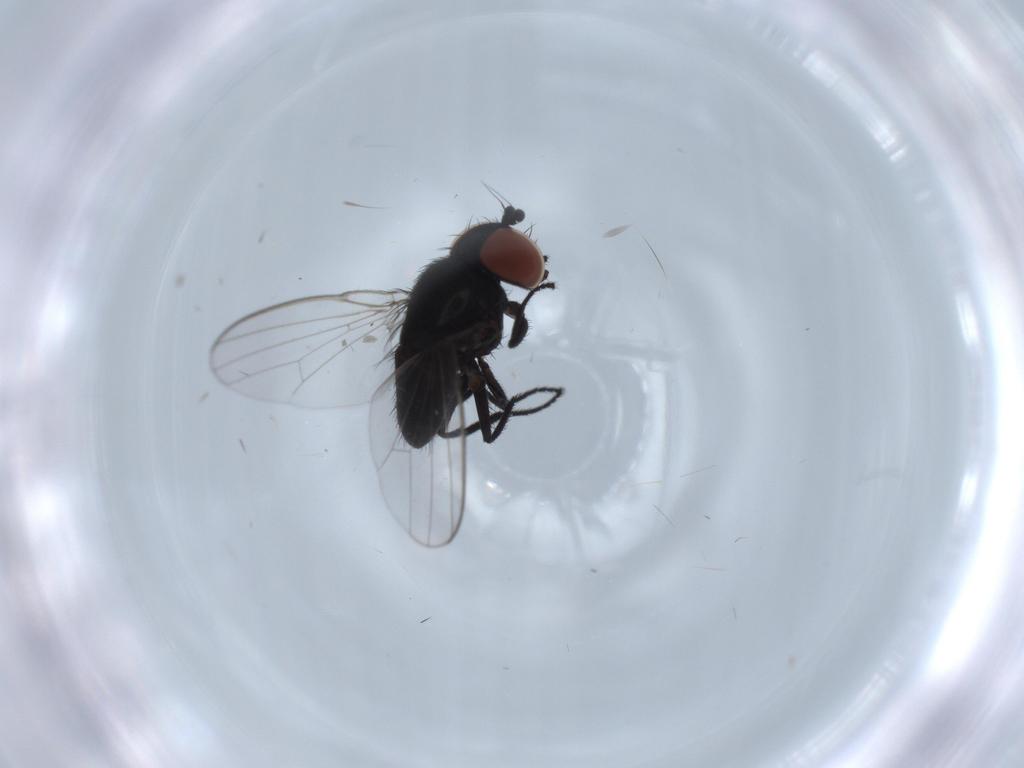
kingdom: Animalia
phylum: Arthropoda
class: Insecta
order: Diptera
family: Milichiidae
